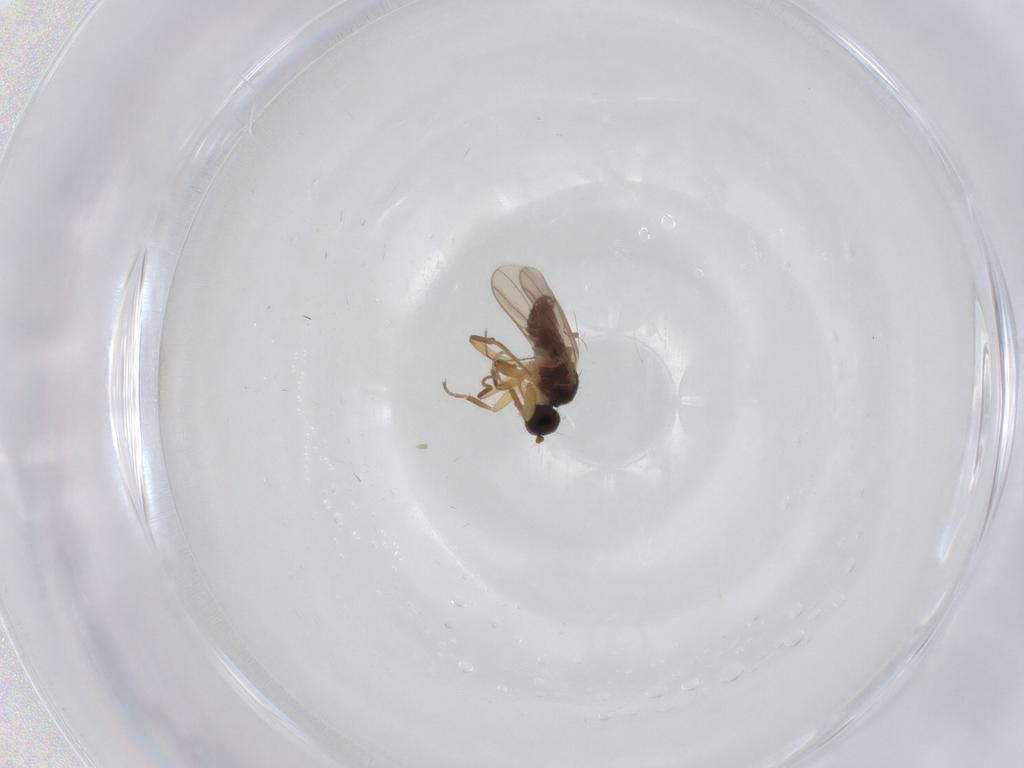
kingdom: Animalia
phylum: Arthropoda
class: Insecta
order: Diptera
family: Hybotidae
